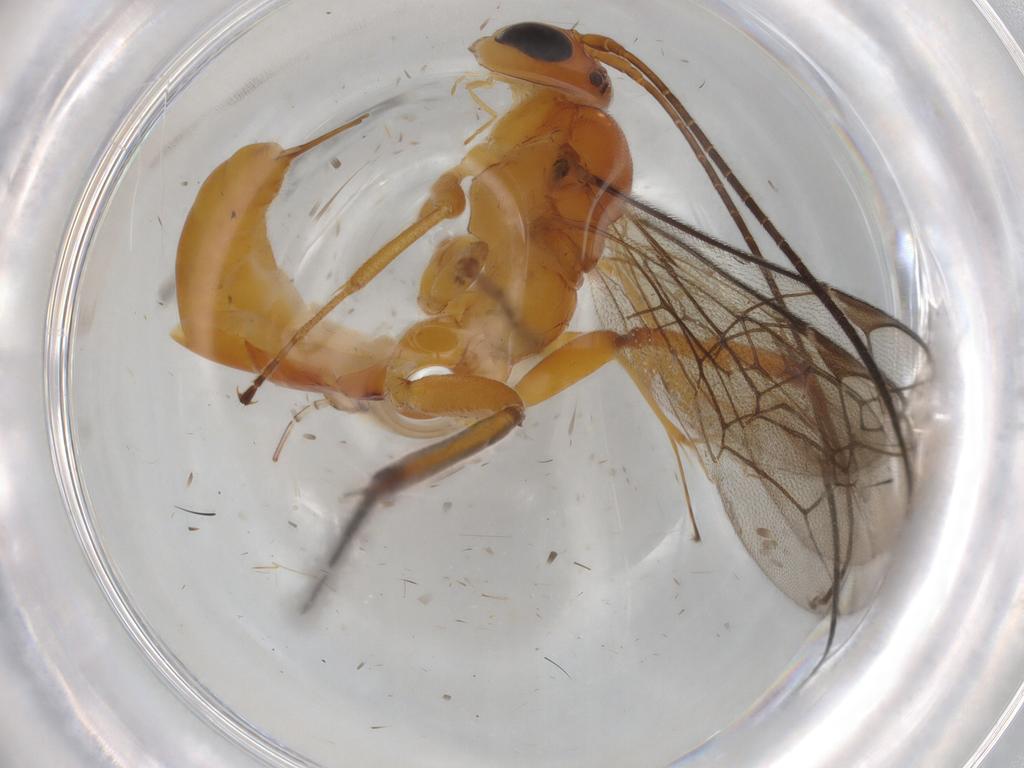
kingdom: Animalia
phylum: Arthropoda
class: Insecta
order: Hymenoptera
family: Ichneumonidae
